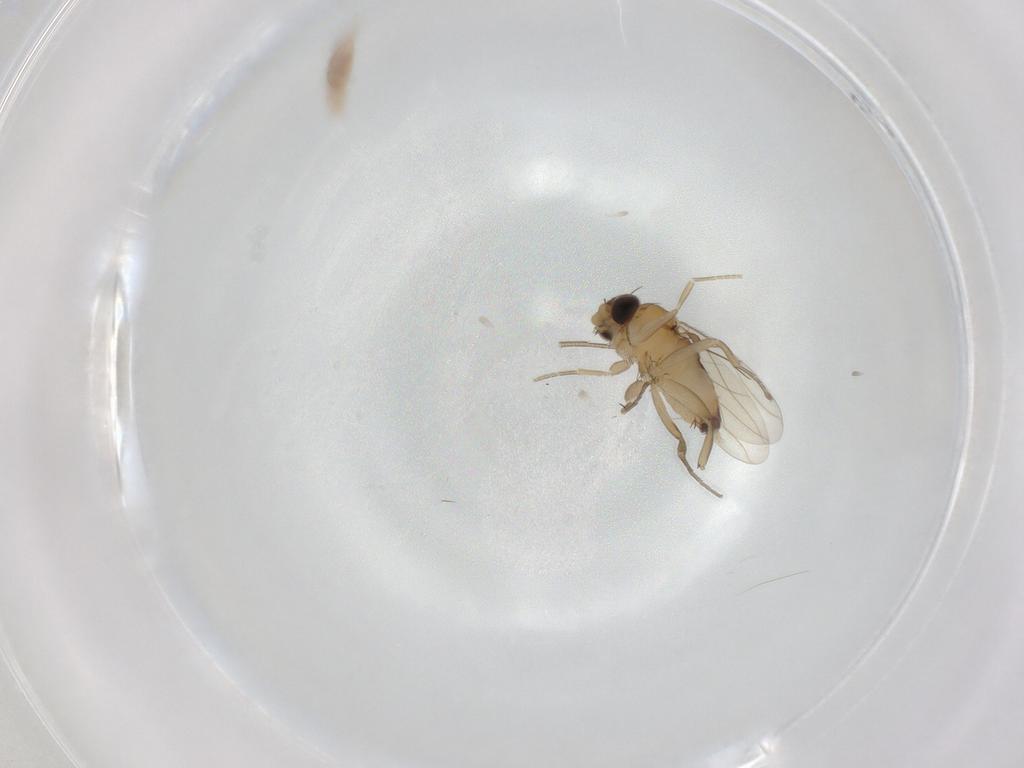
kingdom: Animalia
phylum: Arthropoda
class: Insecta
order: Diptera
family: Phoridae
